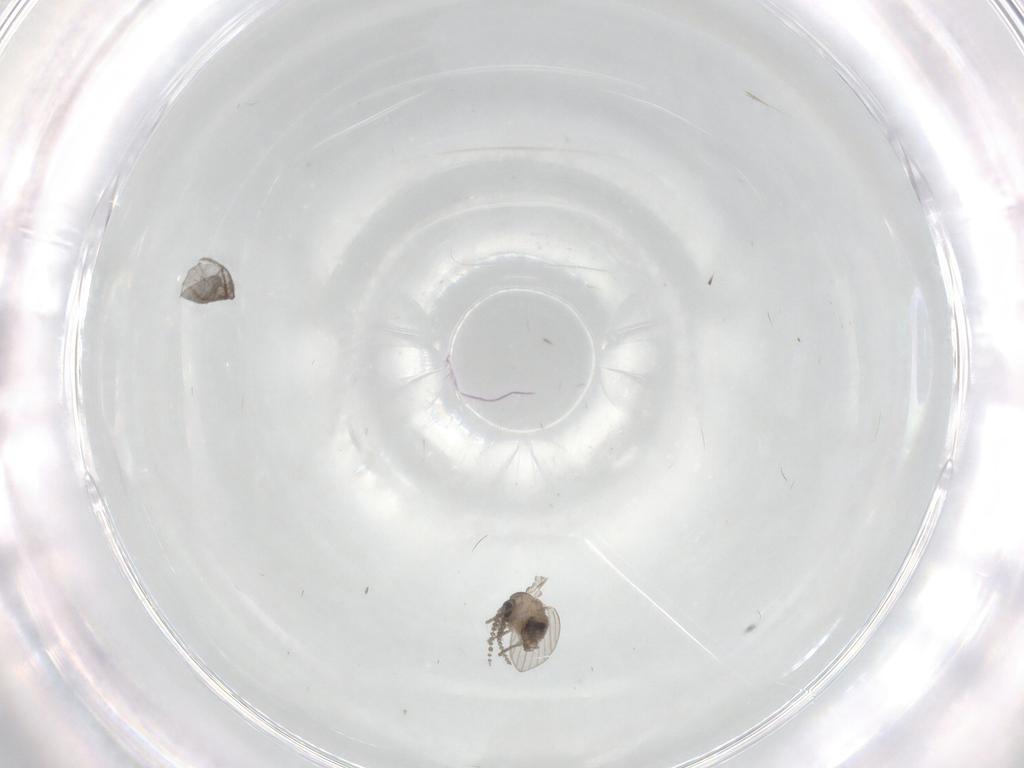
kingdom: Animalia
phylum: Arthropoda
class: Insecta
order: Diptera
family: Psychodidae
